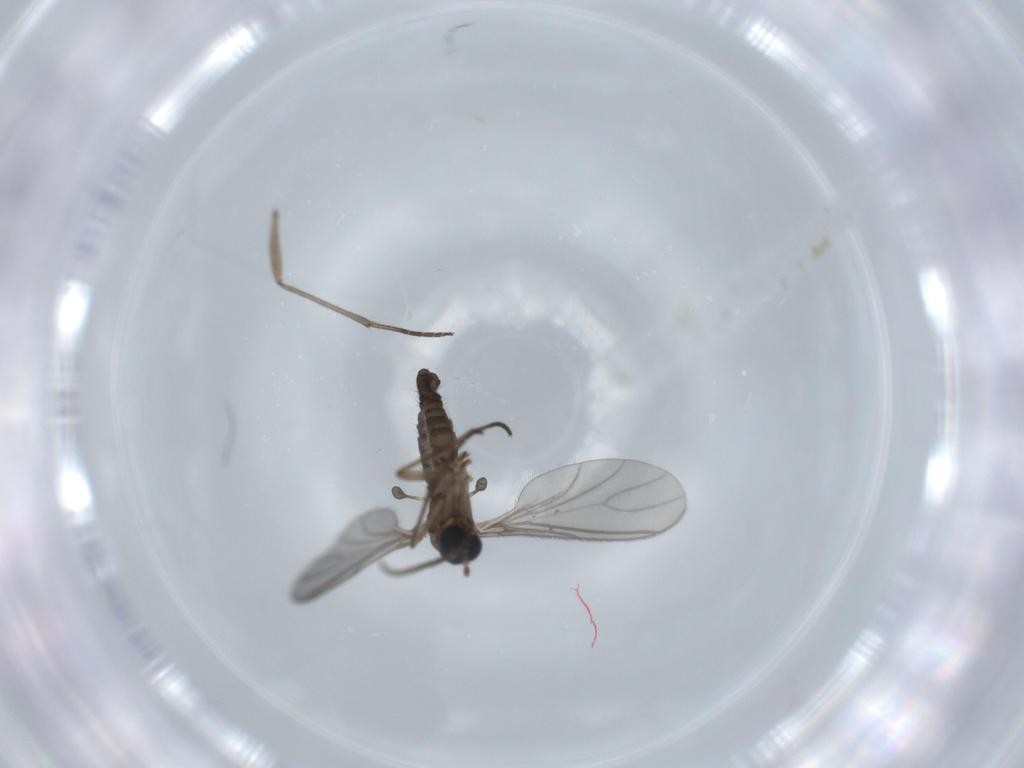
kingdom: Animalia
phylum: Arthropoda
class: Insecta
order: Diptera
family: Sciaridae
